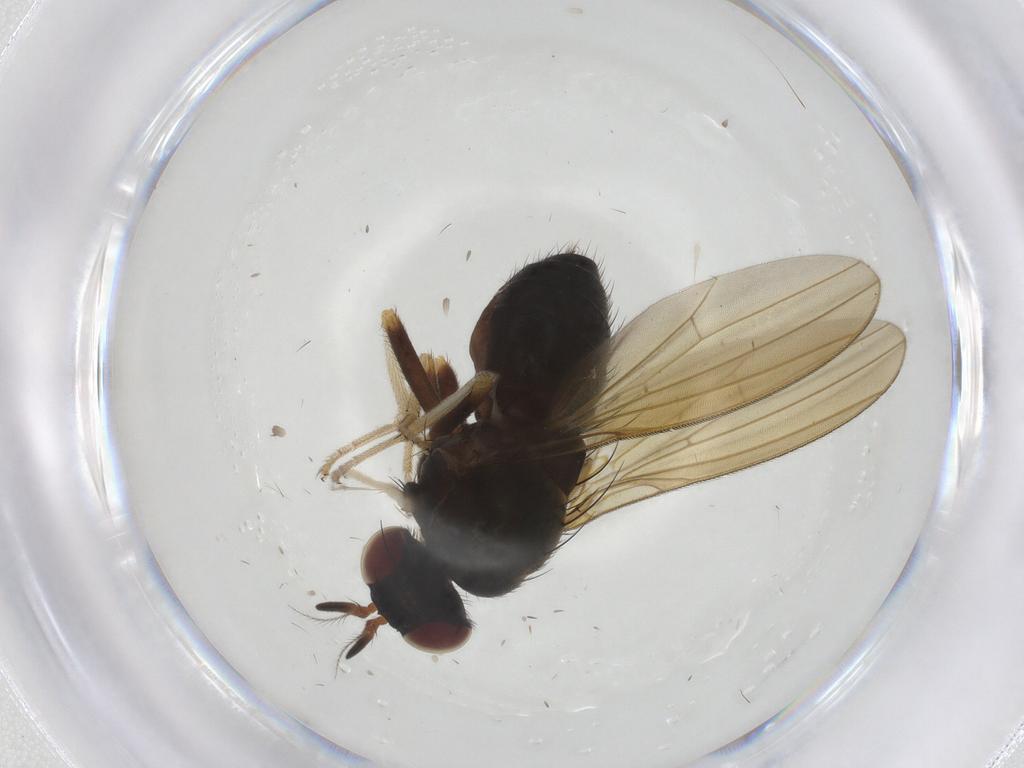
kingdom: Animalia
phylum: Arthropoda
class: Insecta
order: Diptera
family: Lauxaniidae
